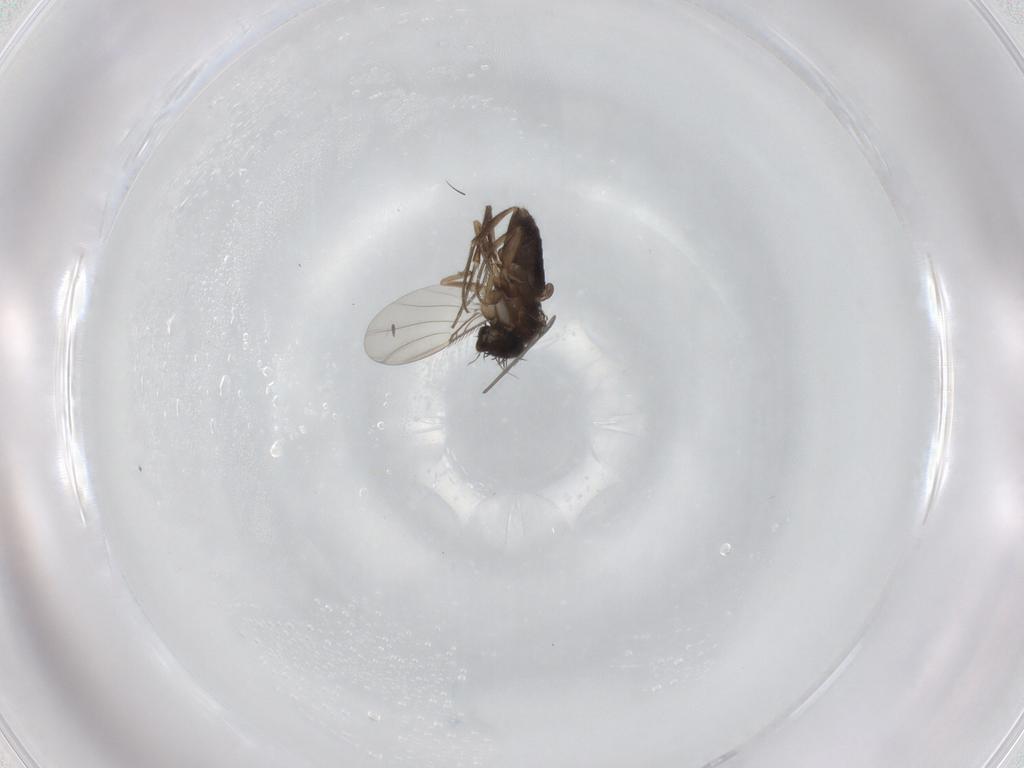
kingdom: Animalia
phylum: Arthropoda
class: Insecta
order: Diptera
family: Phoridae
